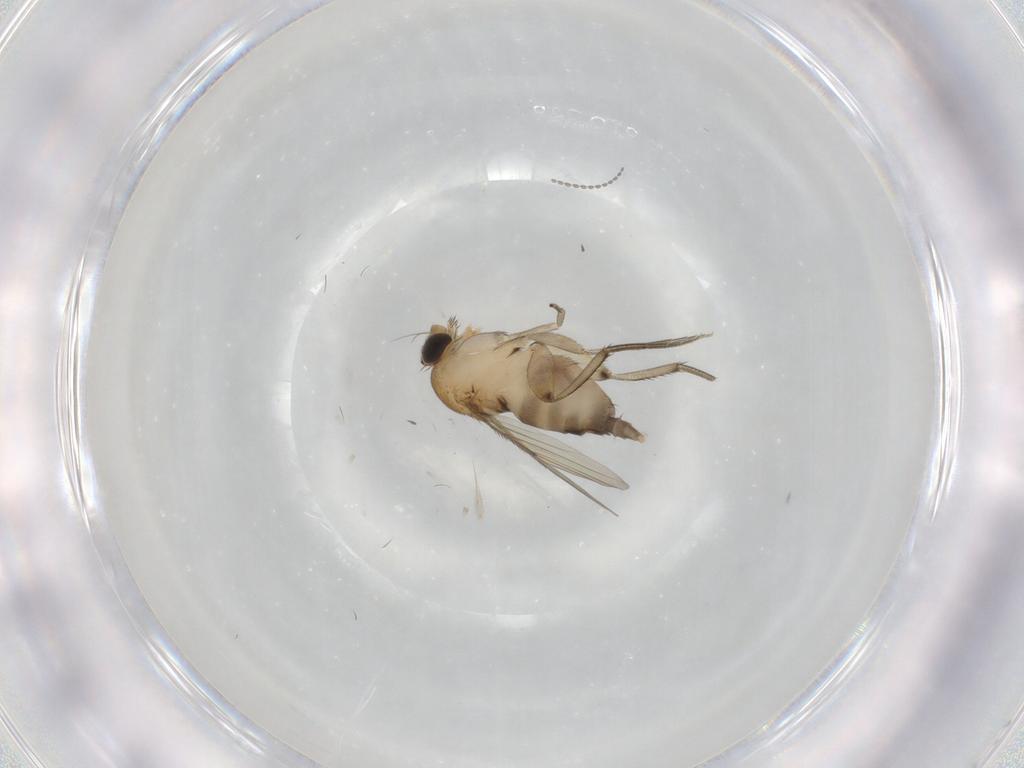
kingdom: Animalia
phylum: Arthropoda
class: Insecta
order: Diptera
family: Phoridae
